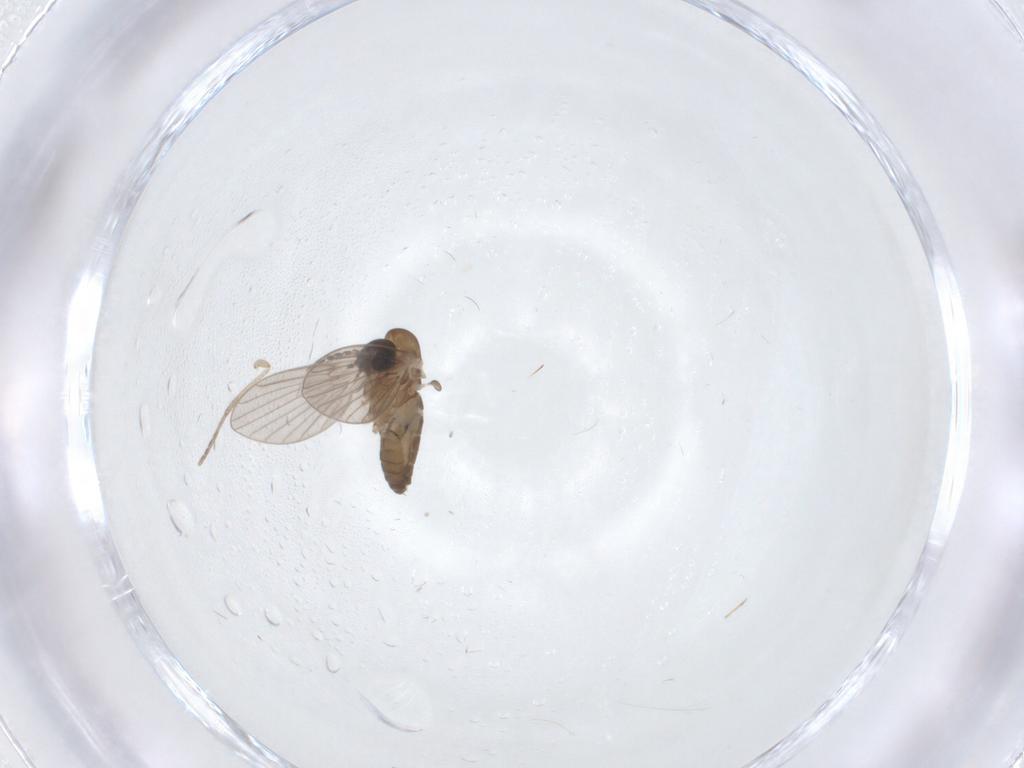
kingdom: Animalia
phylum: Arthropoda
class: Insecta
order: Diptera
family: Chironomidae
